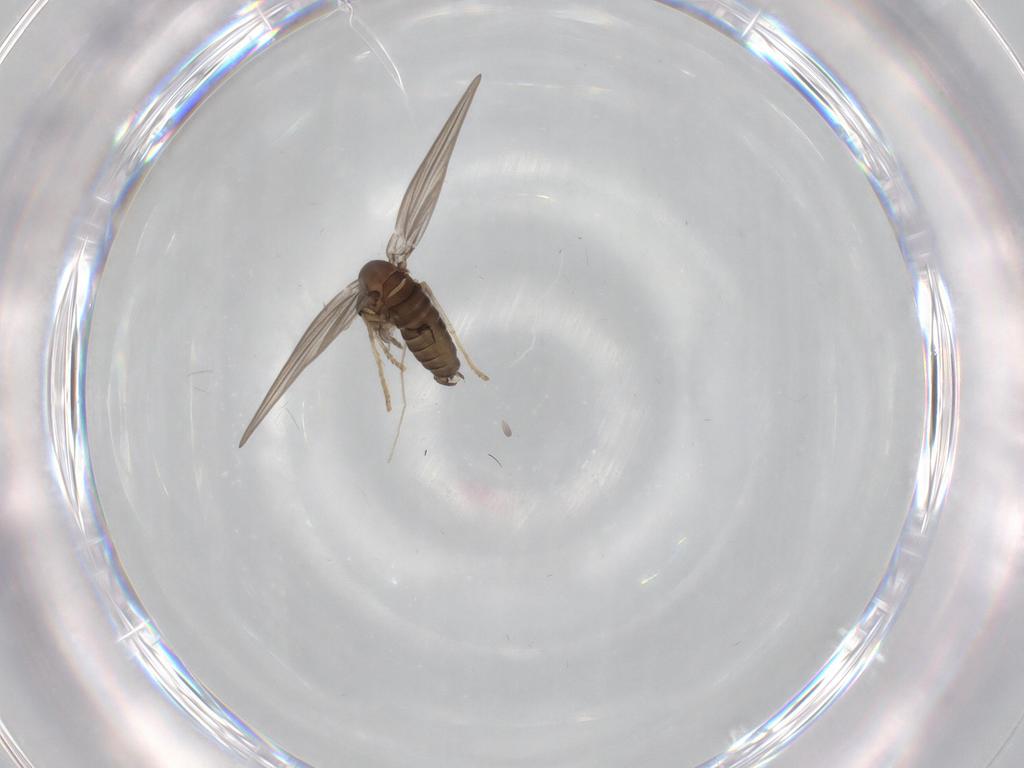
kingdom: Animalia
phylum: Arthropoda
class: Insecta
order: Diptera
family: Psychodidae
